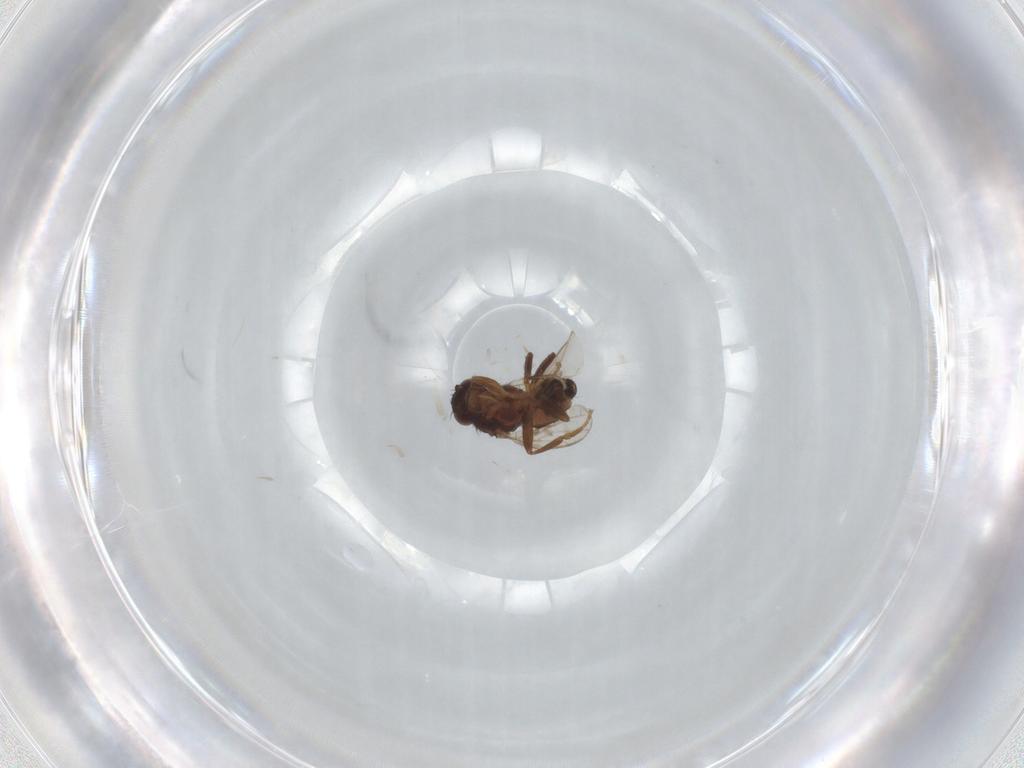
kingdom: Animalia
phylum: Arthropoda
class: Insecta
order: Diptera
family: Sphaeroceridae
